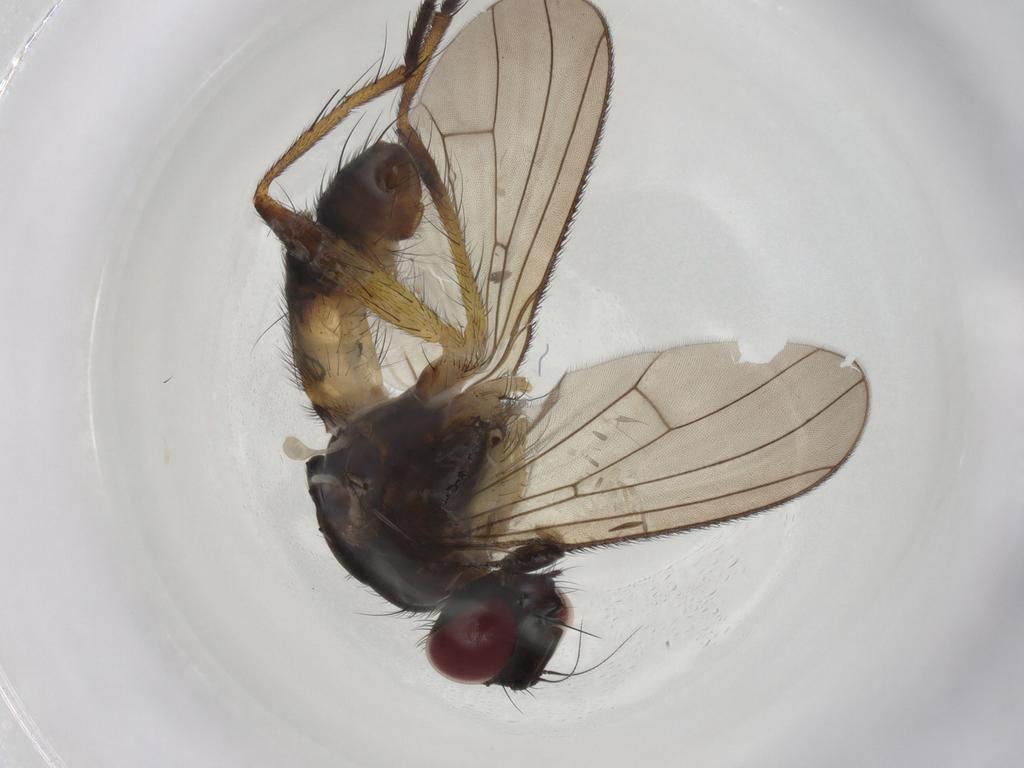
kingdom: Animalia
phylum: Arthropoda
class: Insecta
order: Diptera
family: Muscidae
